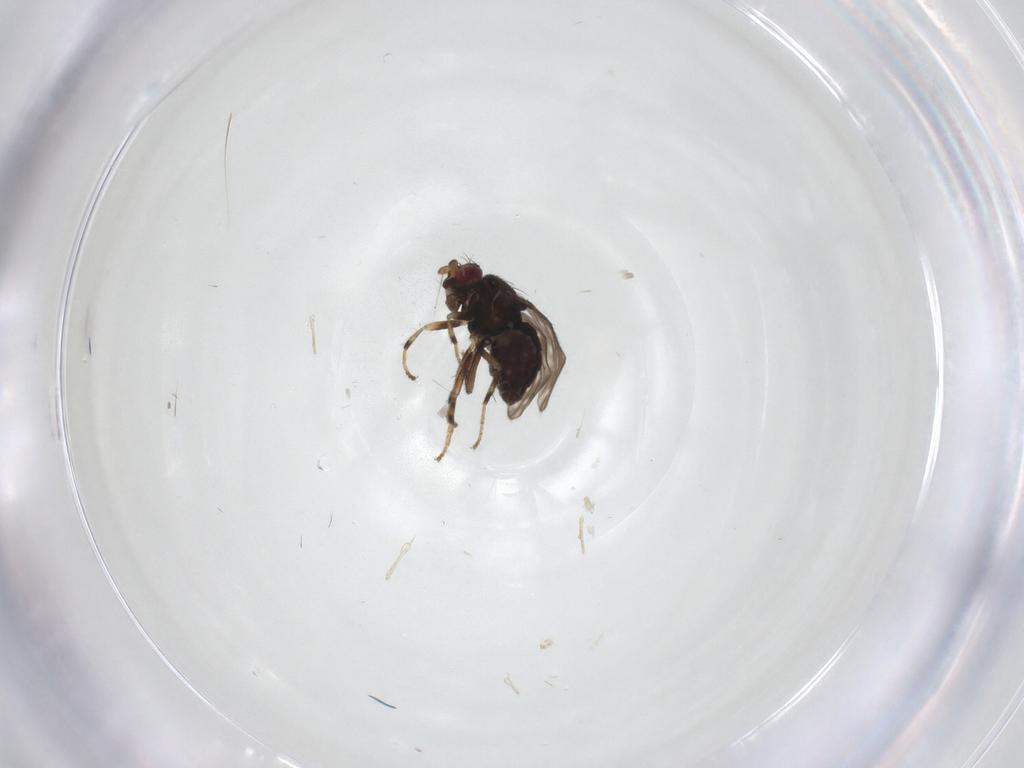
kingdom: Animalia
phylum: Arthropoda
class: Insecta
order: Diptera
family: Sphaeroceridae
